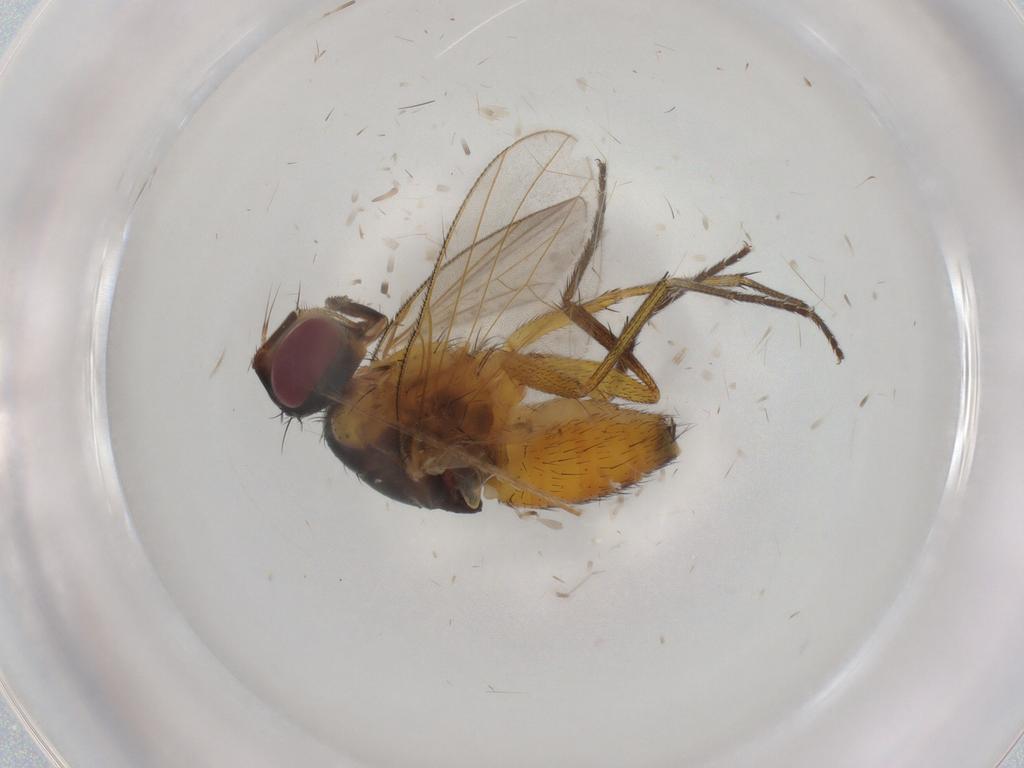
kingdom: Animalia
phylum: Arthropoda
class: Insecta
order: Diptera
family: Muscidae
